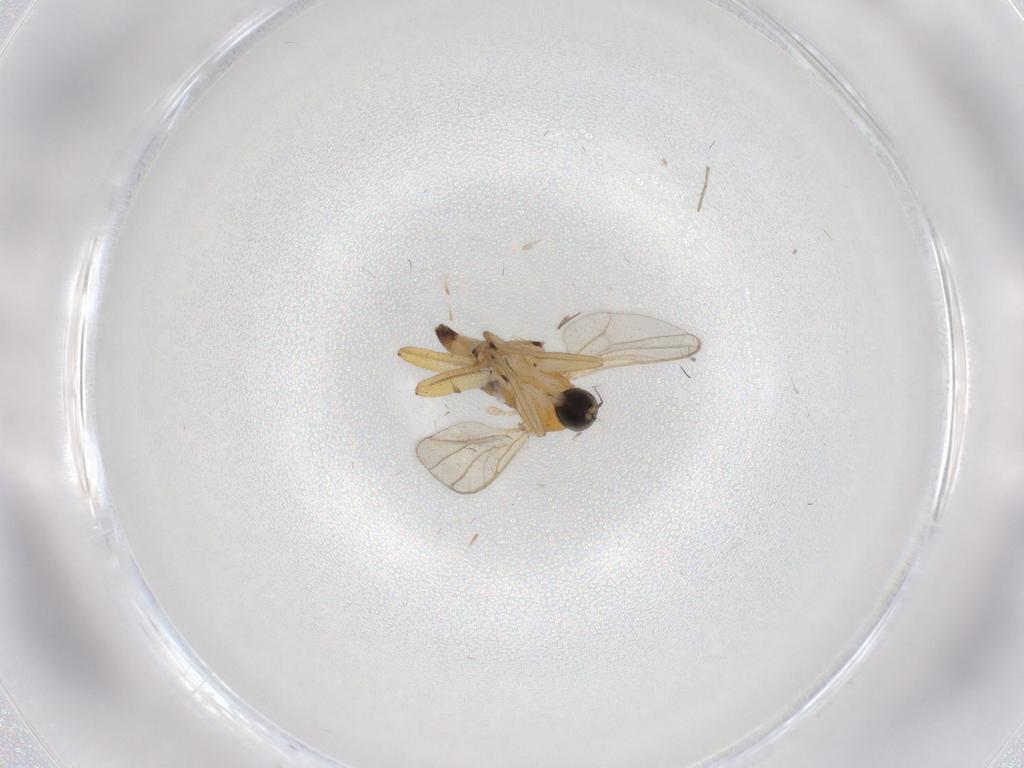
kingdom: Animalia
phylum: Arthropoda
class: Insecta
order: Diptera
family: Hybotidae
